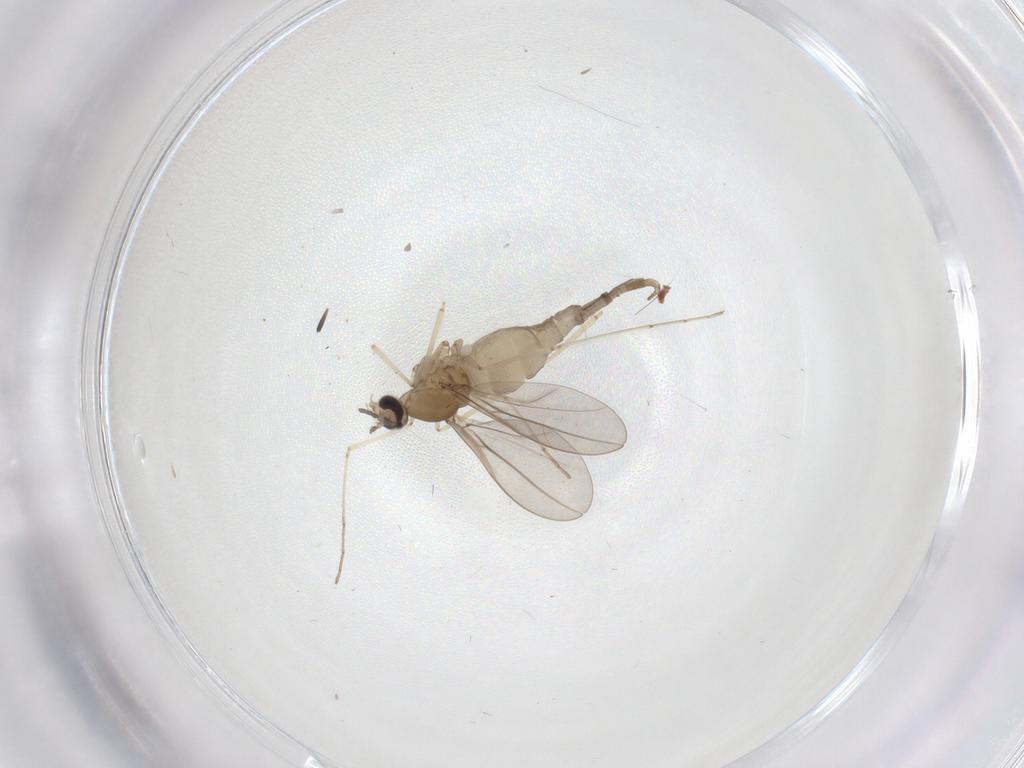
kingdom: Animalia
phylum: Arthropoda
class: Insecta
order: Diptera
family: Cecidomyiidae
